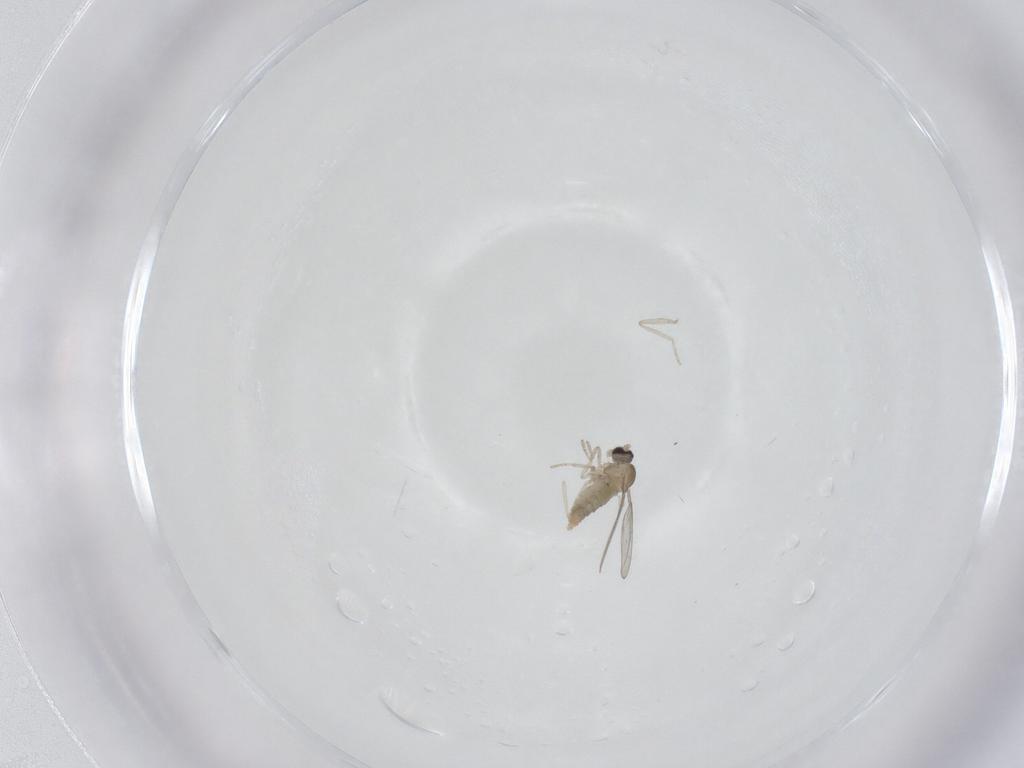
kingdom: Animalia
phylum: Arthropoda
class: Insecta
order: Diptera
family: Cecidomyiidae
